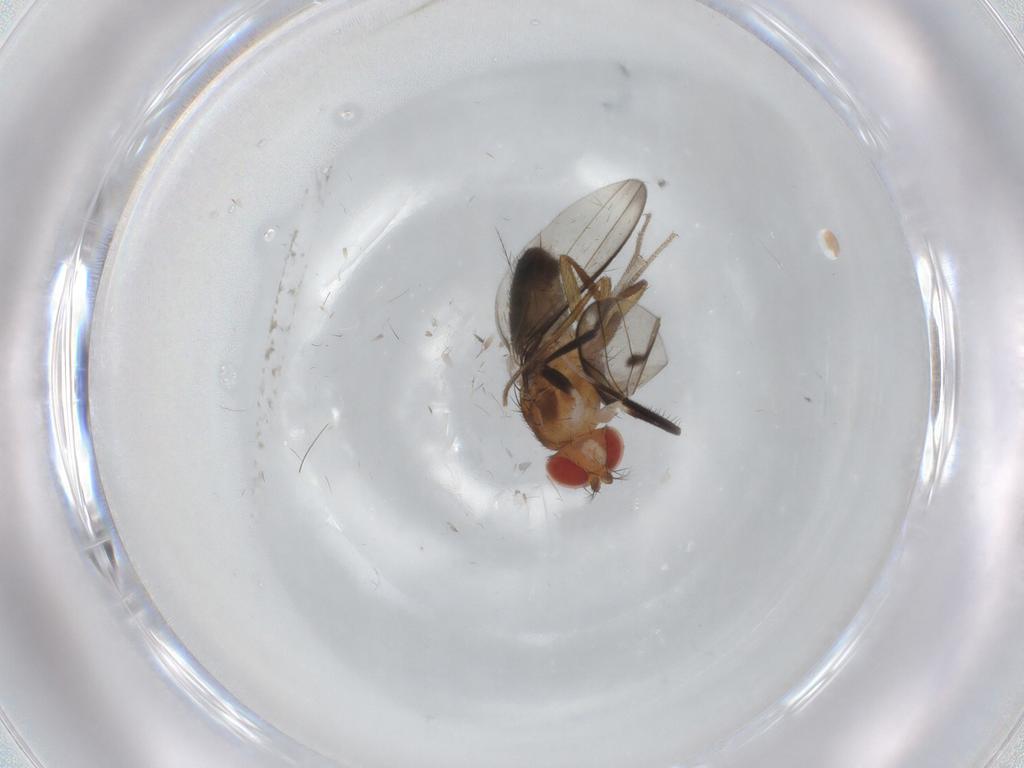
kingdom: Animalia
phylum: Arthropoda
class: Insecta
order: Diptera
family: Drosophilidae
